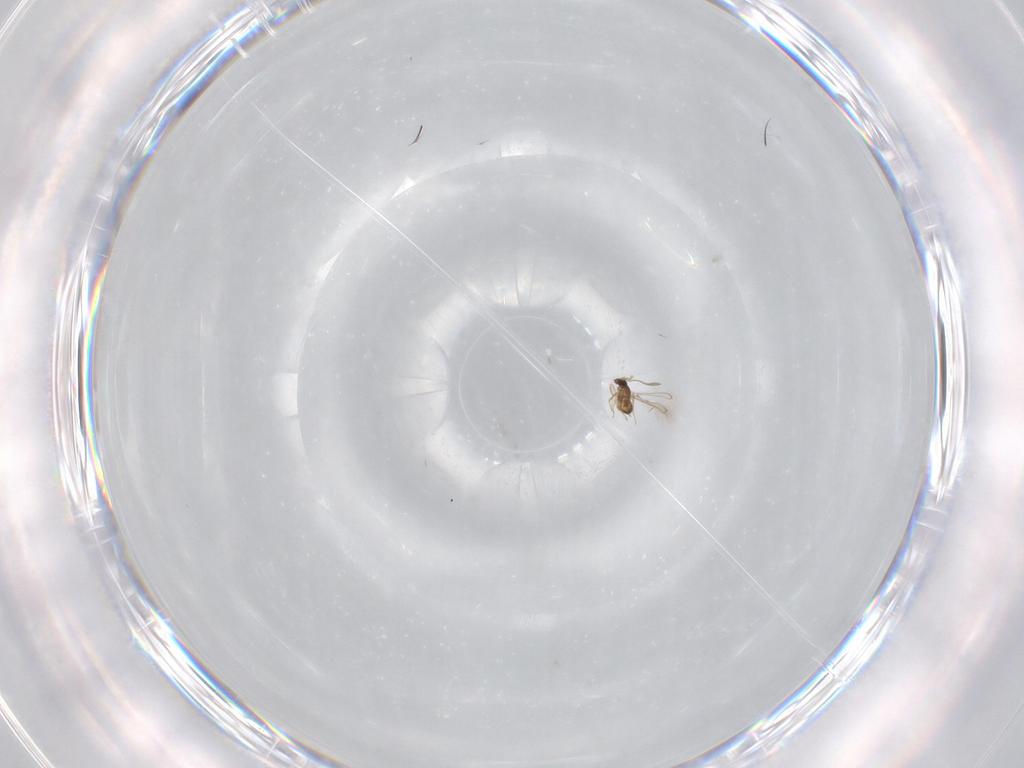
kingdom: Animalia
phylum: Arthropoda
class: Insecta
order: Hymenoptera
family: Mymaridae
